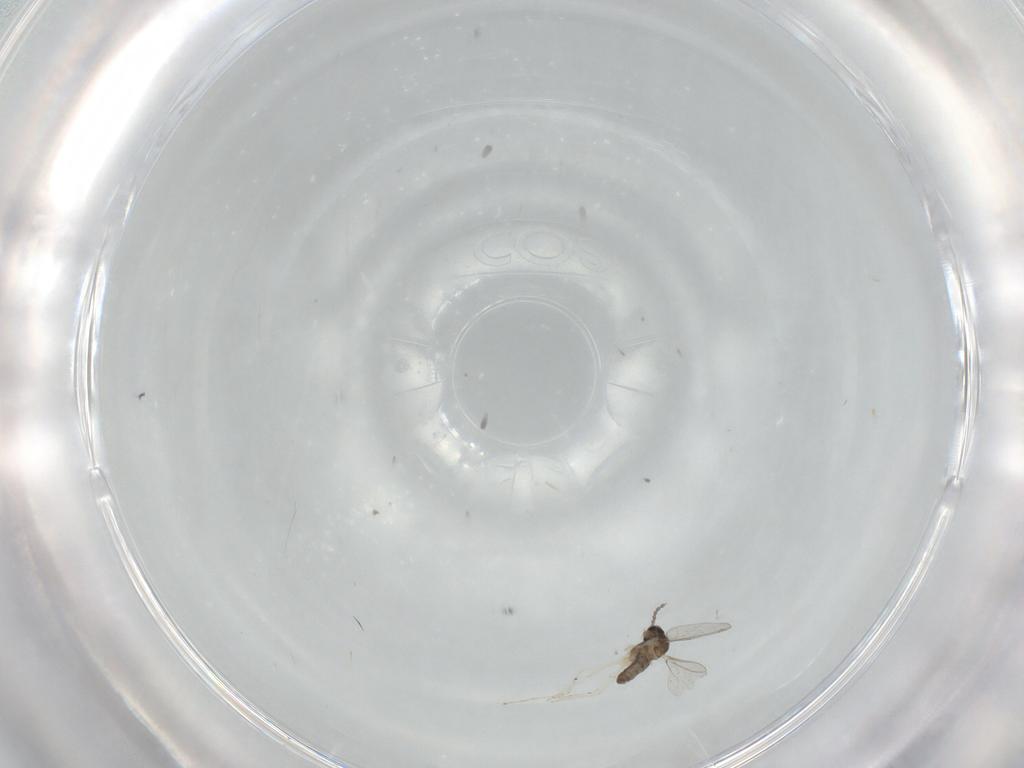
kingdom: Animalia
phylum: Arthropoda
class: Insecta
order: Diptera
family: Cecidomyiidae
